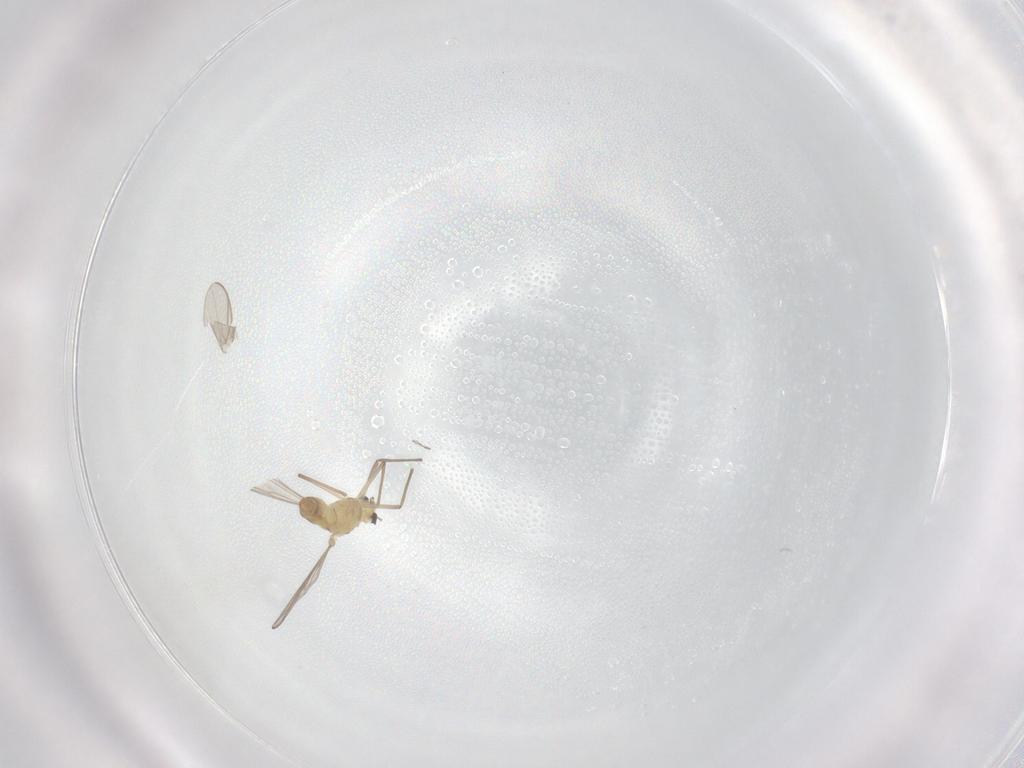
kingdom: Animalia
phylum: Arthropoda
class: Insecta
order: Diptera
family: Chironomidae
